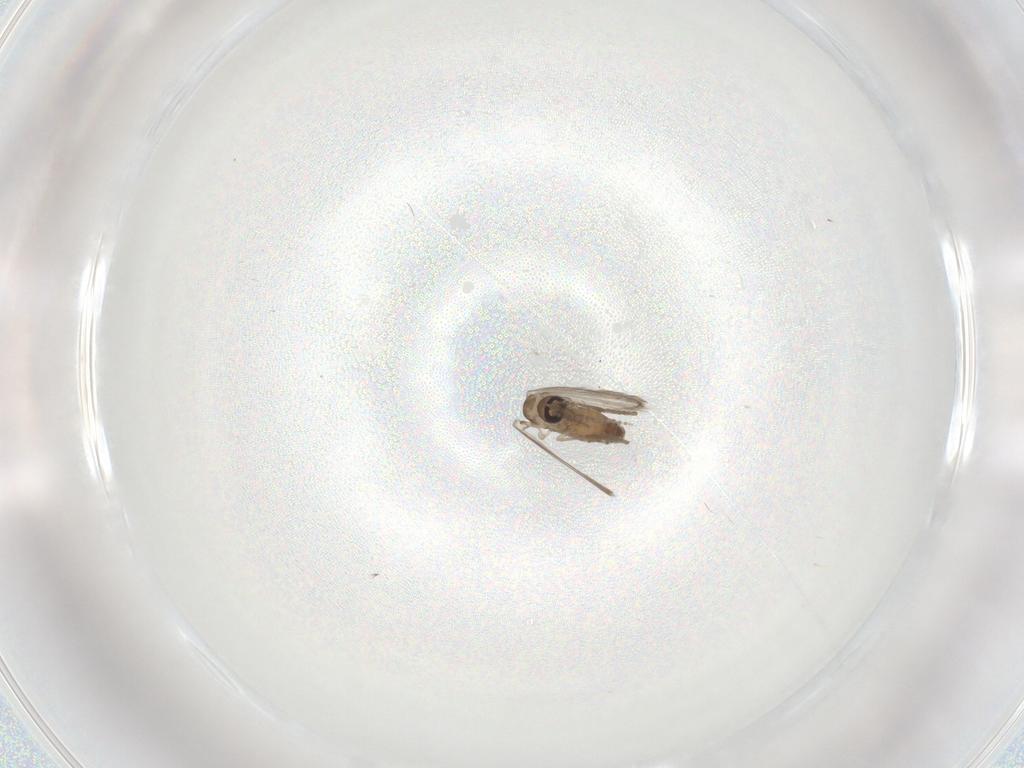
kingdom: Animalia
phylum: Arthropoda
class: Insecta
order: Diptera
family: Psychodidae
